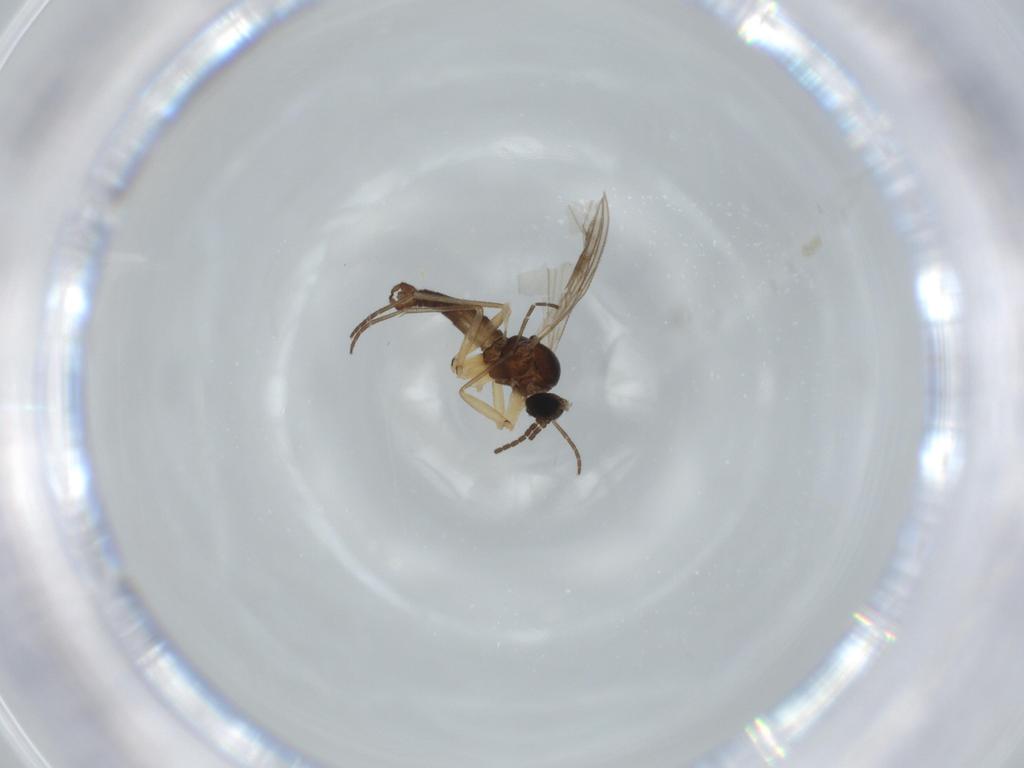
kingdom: Animalia
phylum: Arthropoda
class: Insecta
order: Diptera
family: Sciaridae
